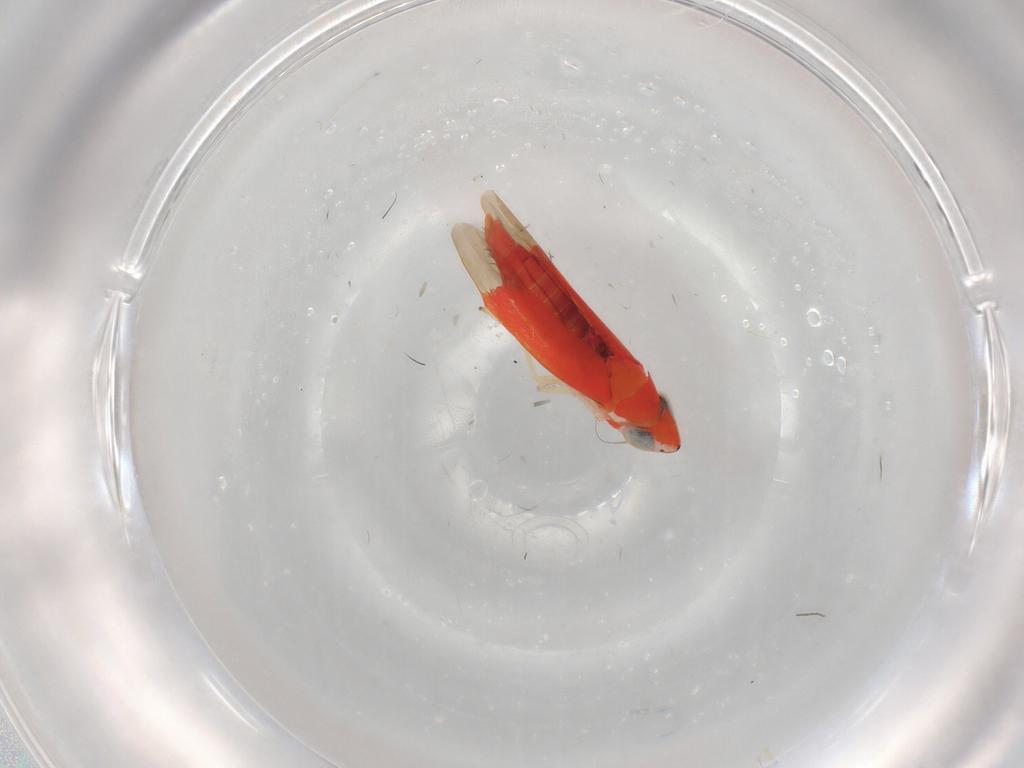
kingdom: Animalia
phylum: Arthropoda
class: Insecta
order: Hemiptera
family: Cicadellidae
